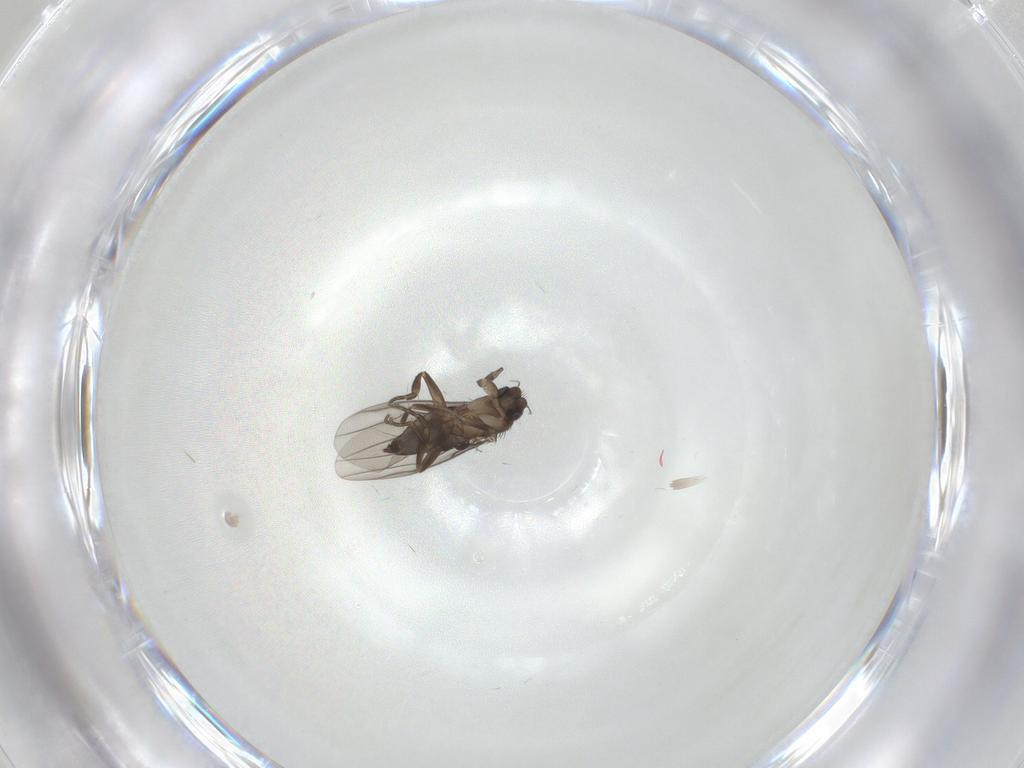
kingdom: Animalia
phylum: Arthropoda
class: Insecta
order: Diptera
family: Phoridae
